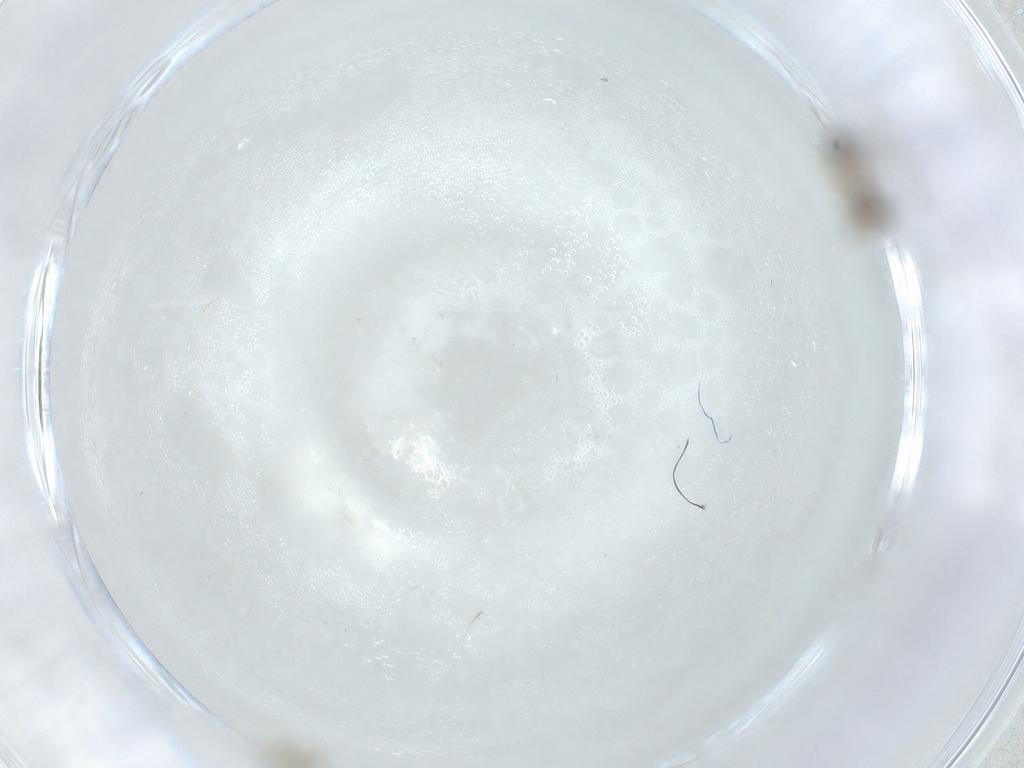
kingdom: Animalia
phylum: Arthropoda
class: Insecta
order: Diptera
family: Cecidomyiidae
